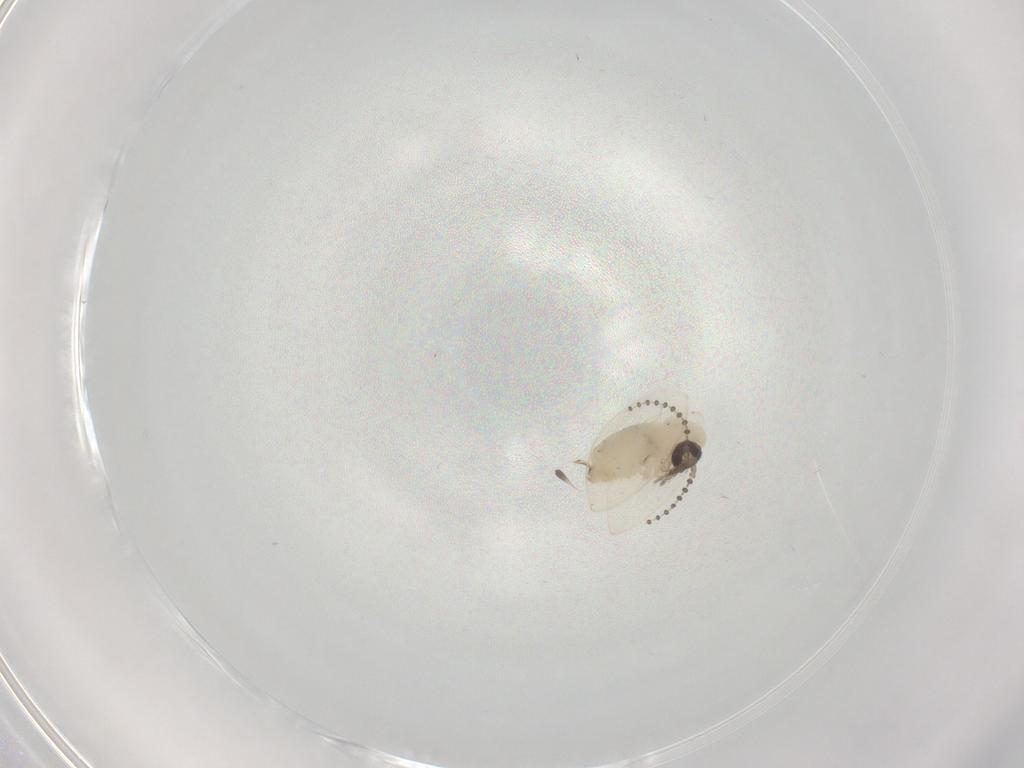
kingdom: Animalia
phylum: Arthropoda
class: Insecta
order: Diptera
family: Psychodidae
